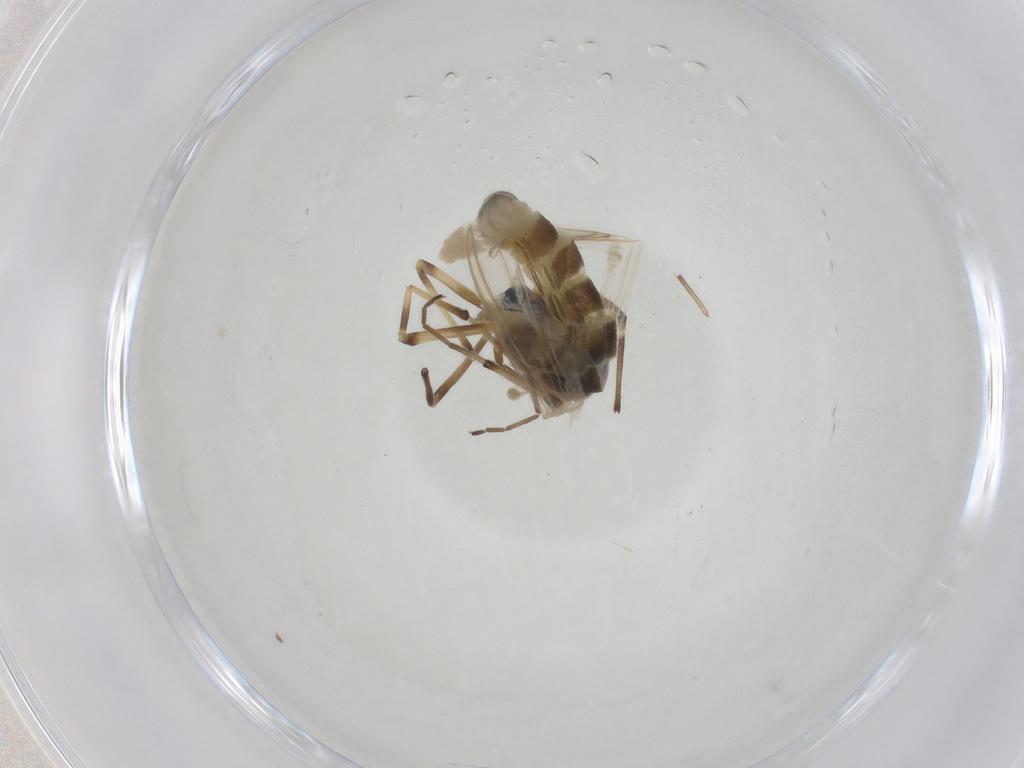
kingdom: Animalia
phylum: Arthropoda
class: Insecta
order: Diptera
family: Chironomidae
